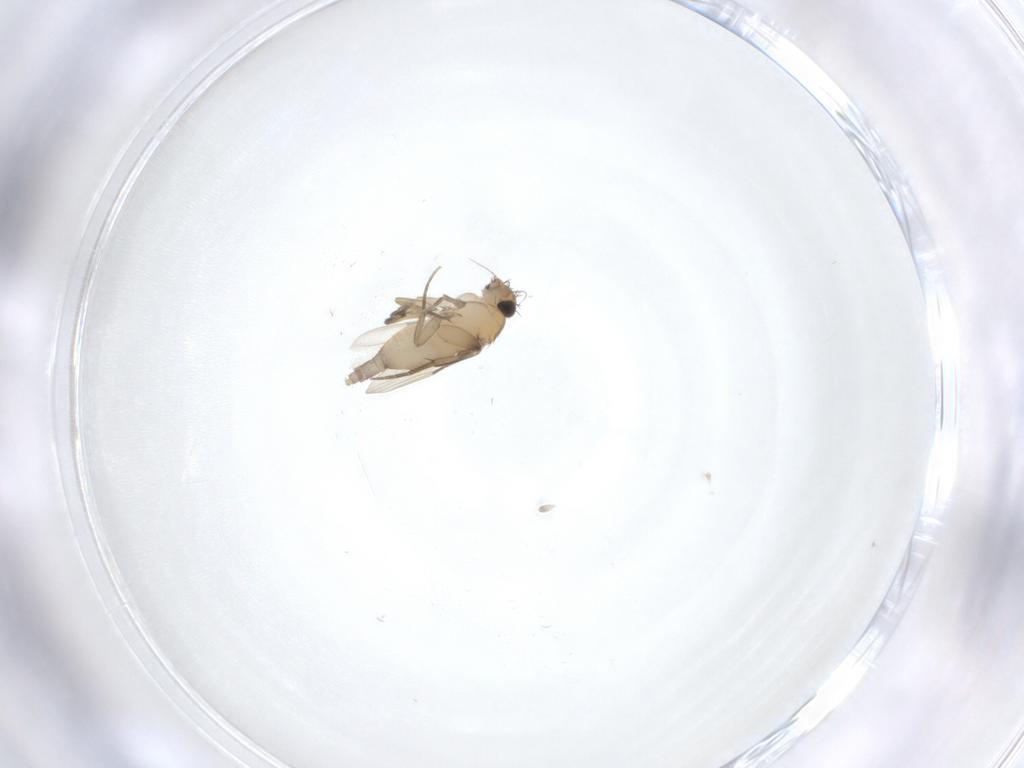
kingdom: Animalia
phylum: Arthropoda
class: Insecta
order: Diptera
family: Phoridae
